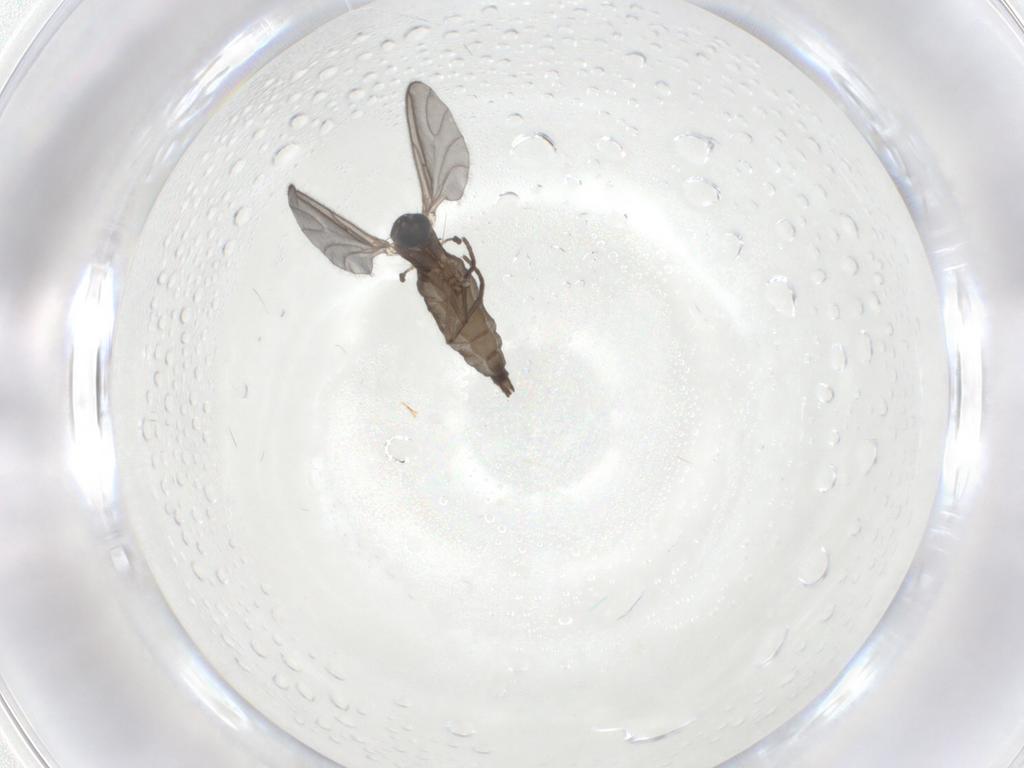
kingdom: Animalia
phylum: Arthropoda
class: Insecta
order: Diptera
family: Sciaridae
